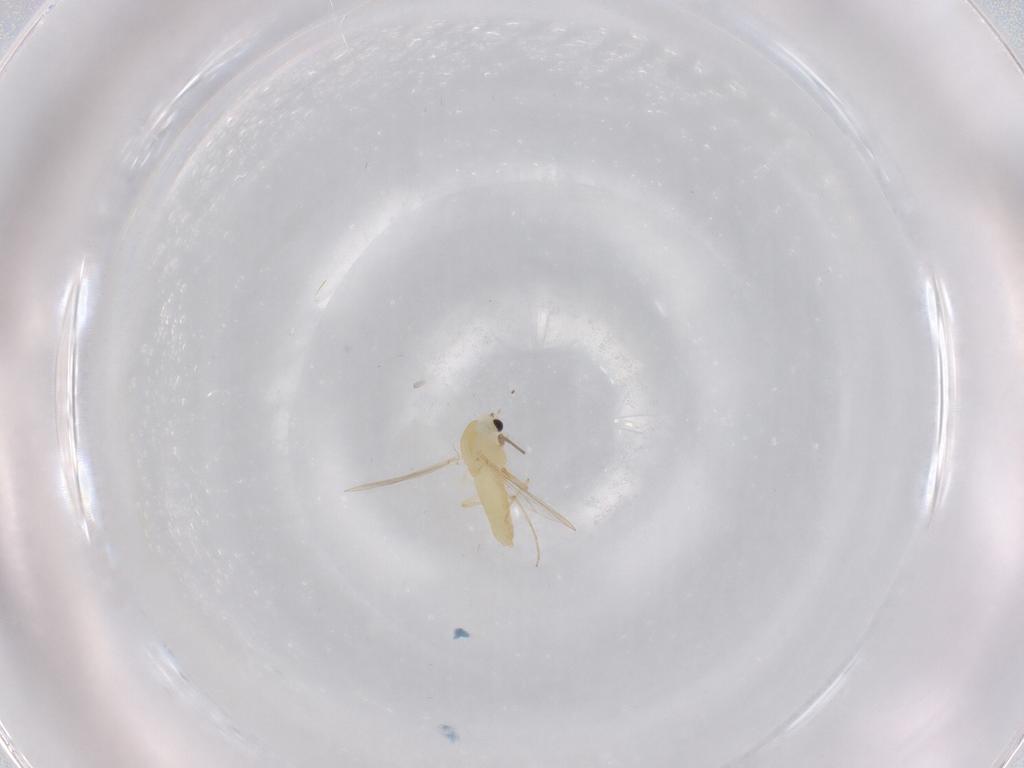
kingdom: Animalia
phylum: Arthropoda
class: Insecta
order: Diptera
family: Chironomidae
